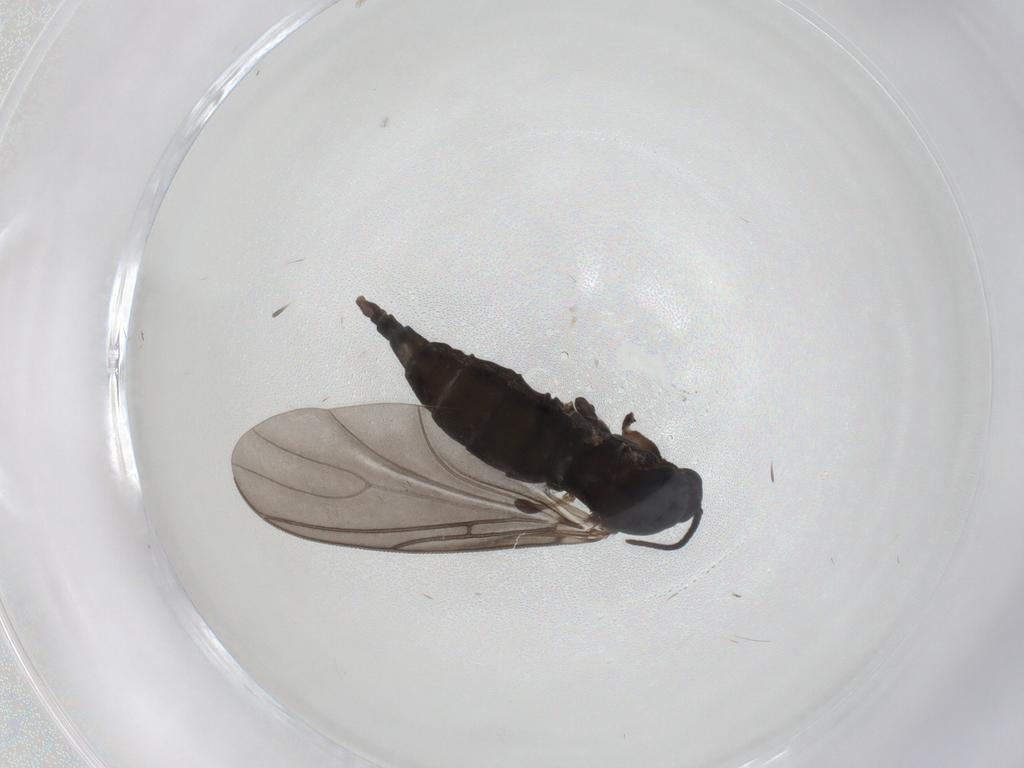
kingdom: Animalia
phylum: Arthropoda
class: Insecta
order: Diptera
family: Sciaridae
